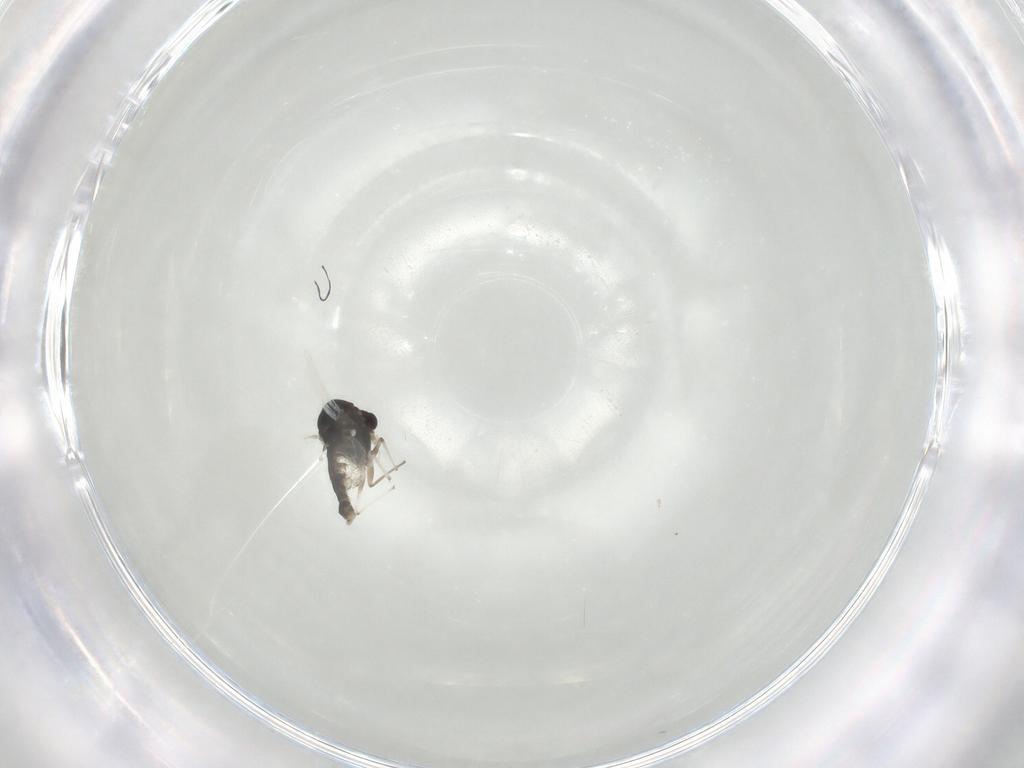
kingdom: Animalia
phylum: Arthropoda
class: Insecta
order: Diptera
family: Chironomidae
